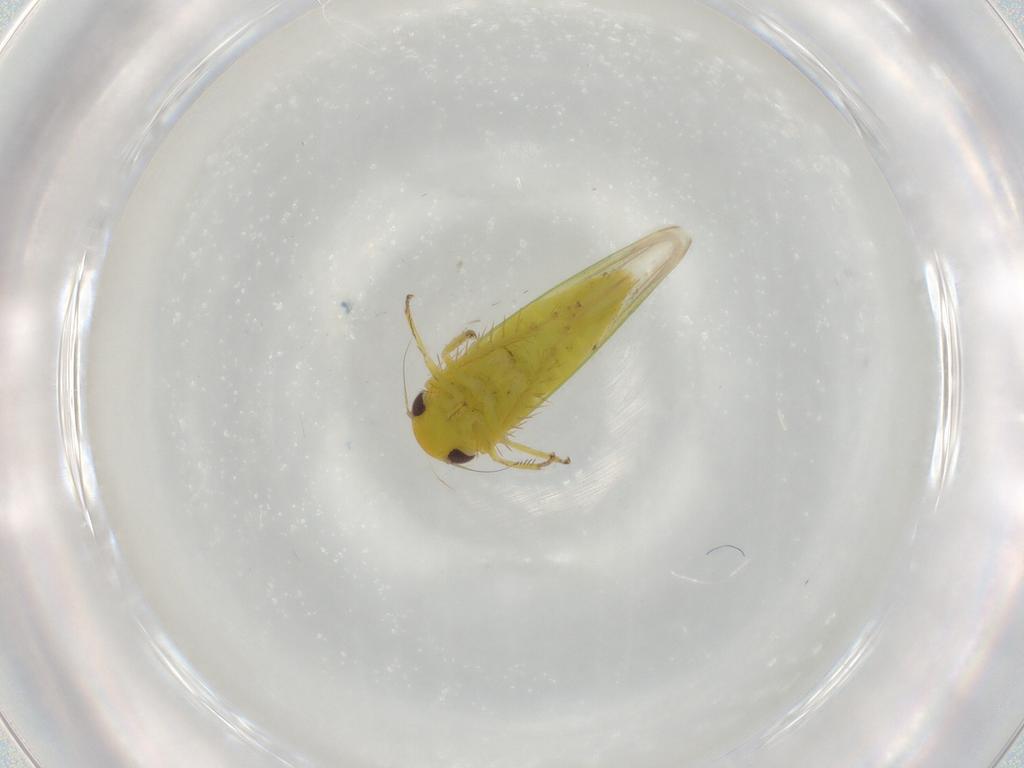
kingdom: Animalia
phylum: Arthropoda
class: Insecta
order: Hemiptera
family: Cicadellidae
